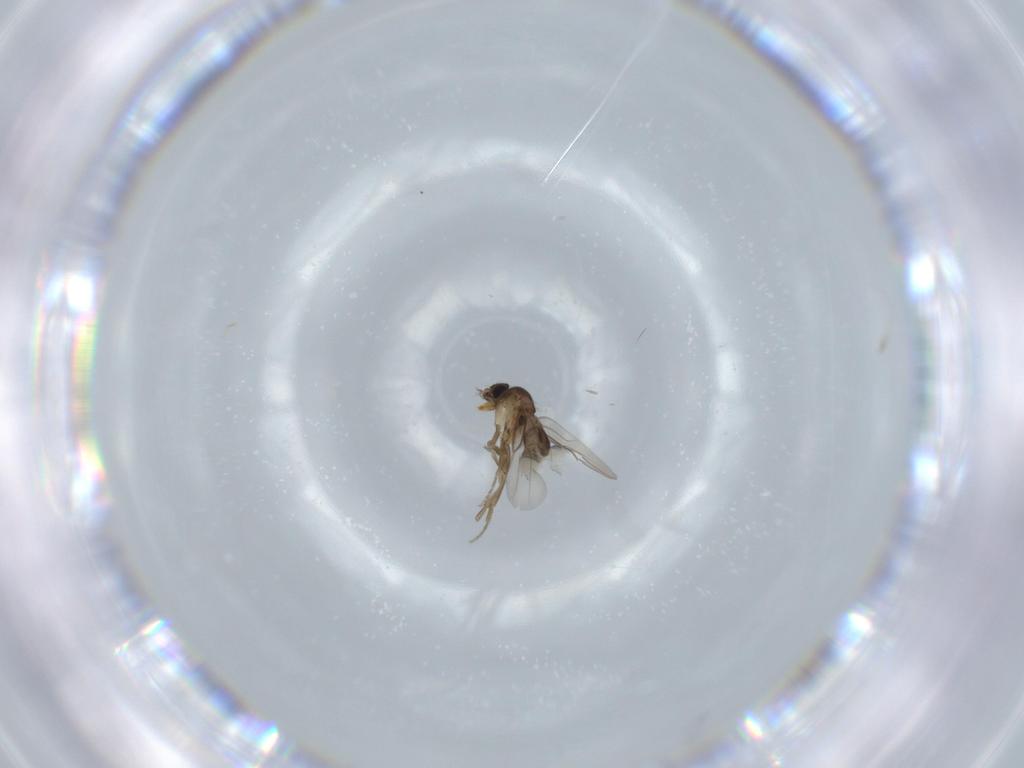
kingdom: Animalia
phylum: Arthropoda
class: Insecta
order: Diptera
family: Phoridae
